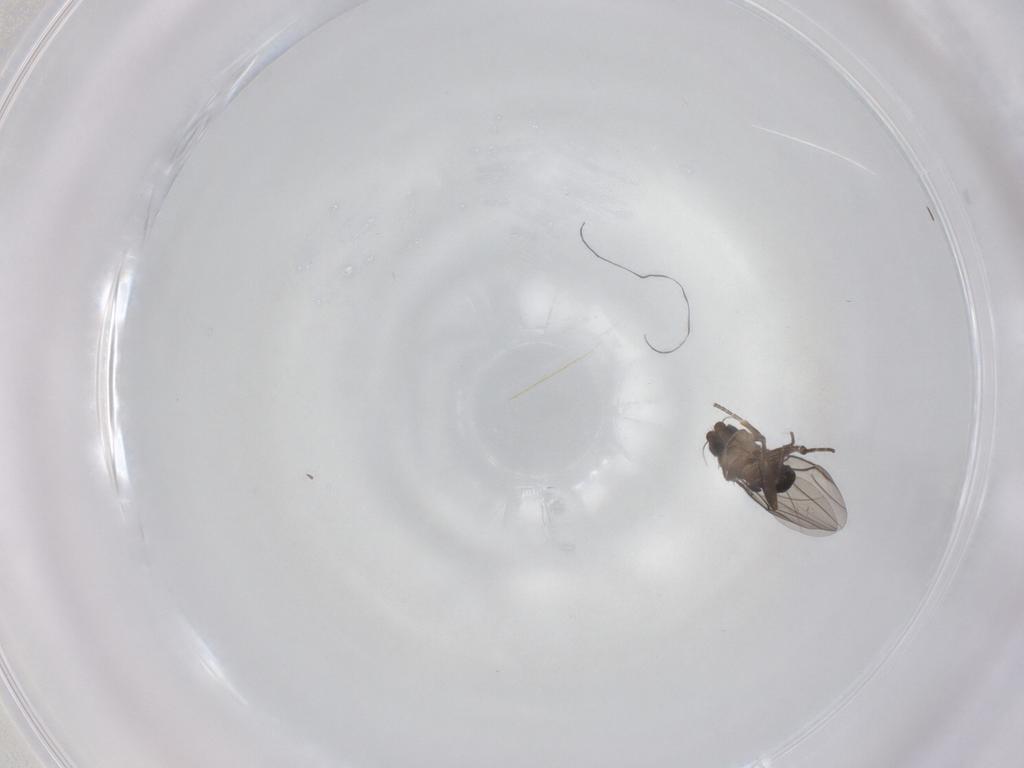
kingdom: Animalia
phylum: Arthropoda
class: Insecta
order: Diptera
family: Phoridae
